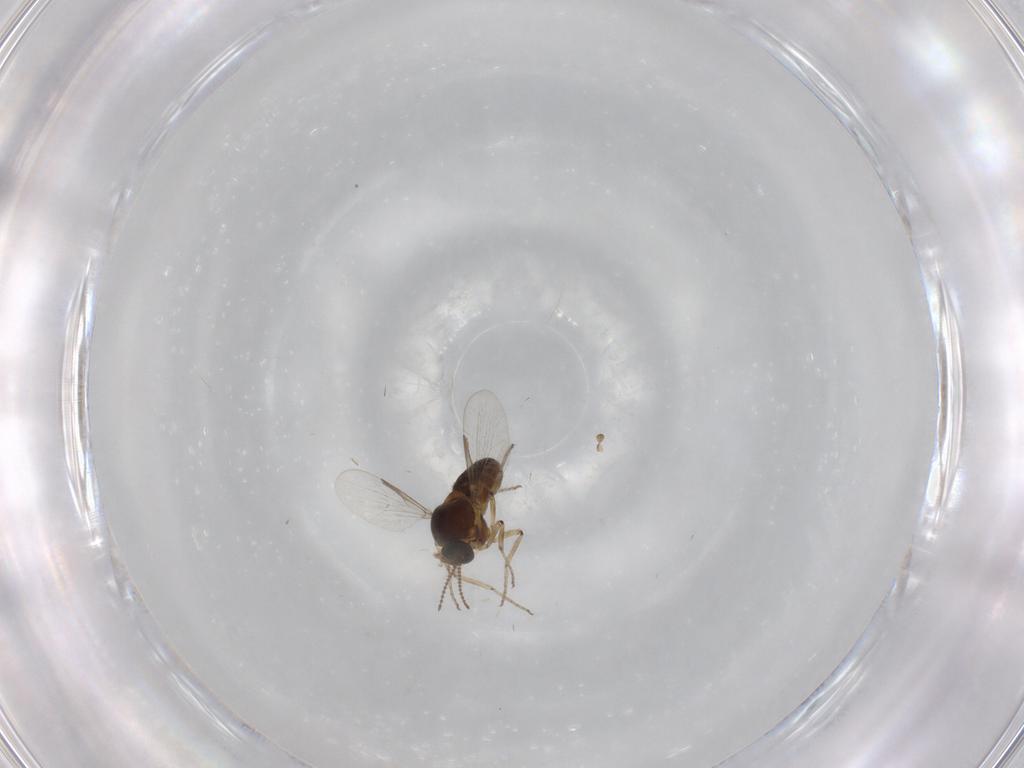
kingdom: Animalia
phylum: Arthropoda
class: Insecta
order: Diptera
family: Ceratopogonidae
